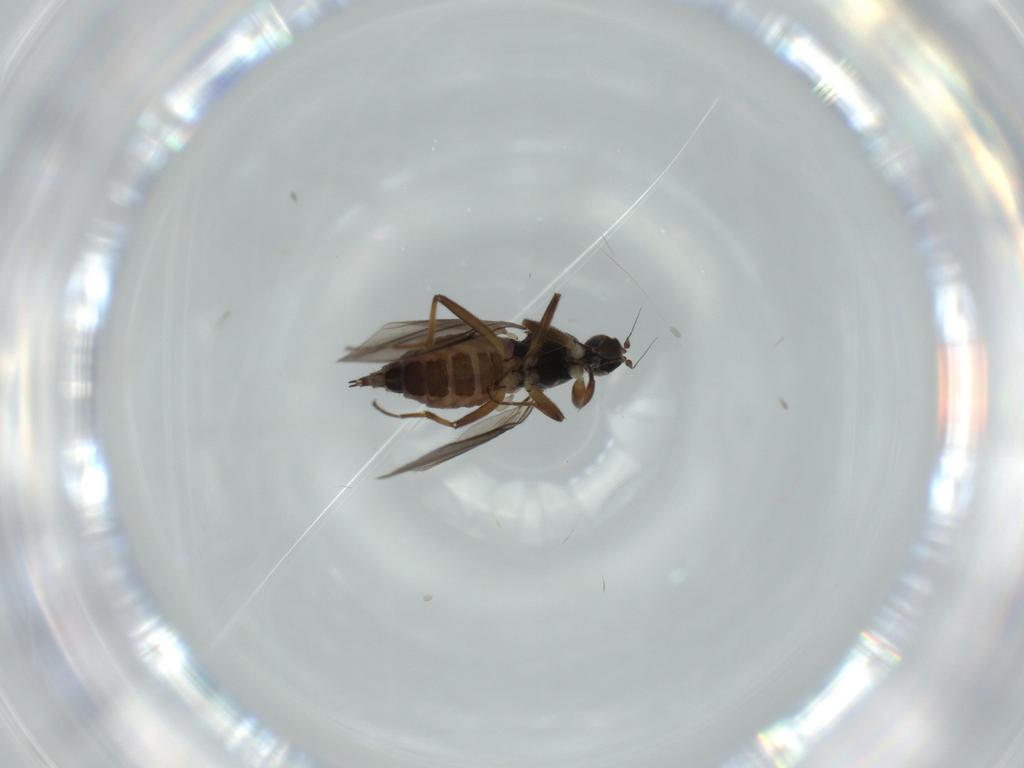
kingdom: Animalia
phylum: Arthropoda
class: Insecta
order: Diptera
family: Hybotidae
